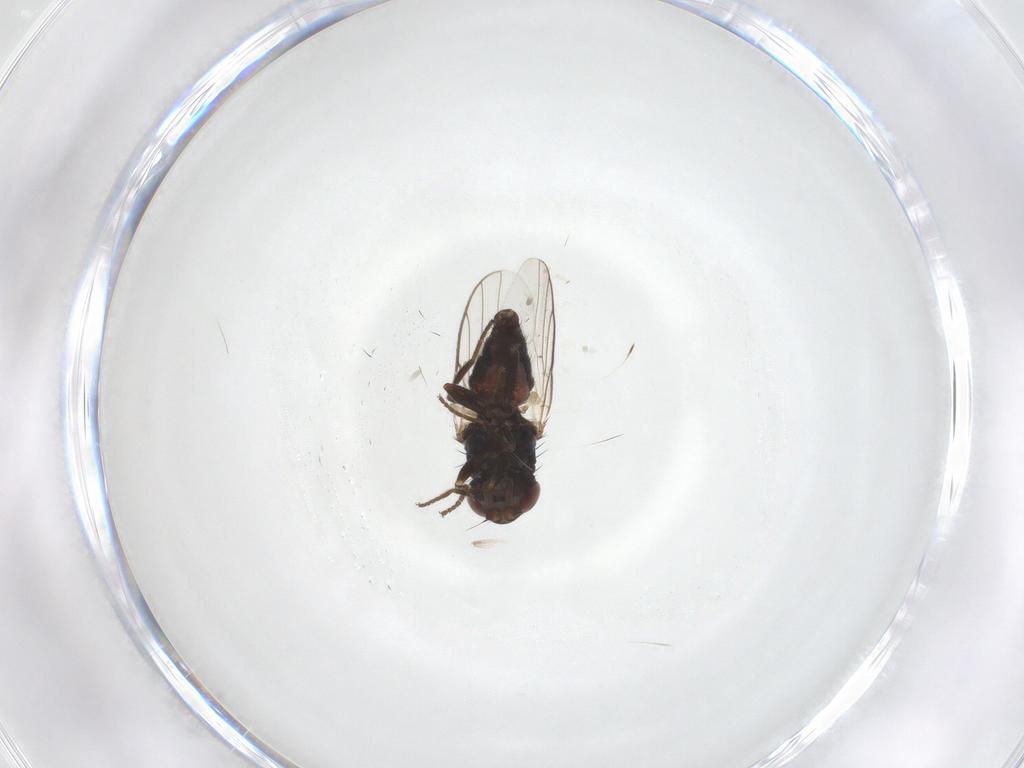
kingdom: Animalia
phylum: Arthropoda
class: Insecta
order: Diptera
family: Chloropidae
